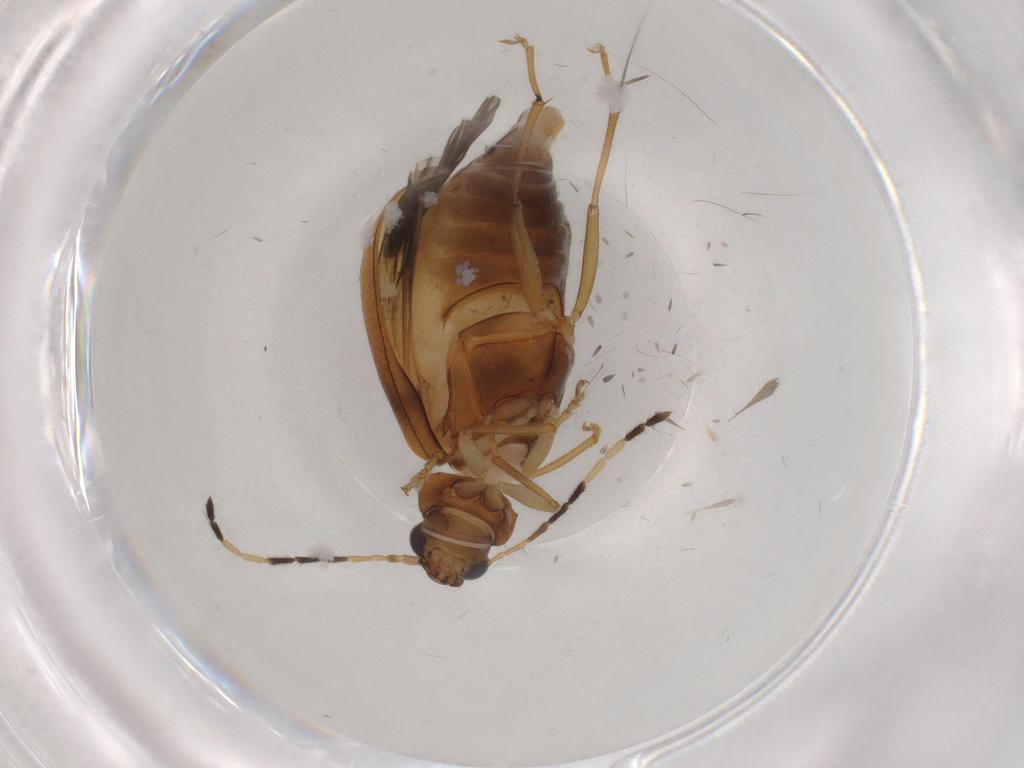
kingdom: Animalia
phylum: Arthropoda
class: Insecta
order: Coleoptera
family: Chrysomelidae
